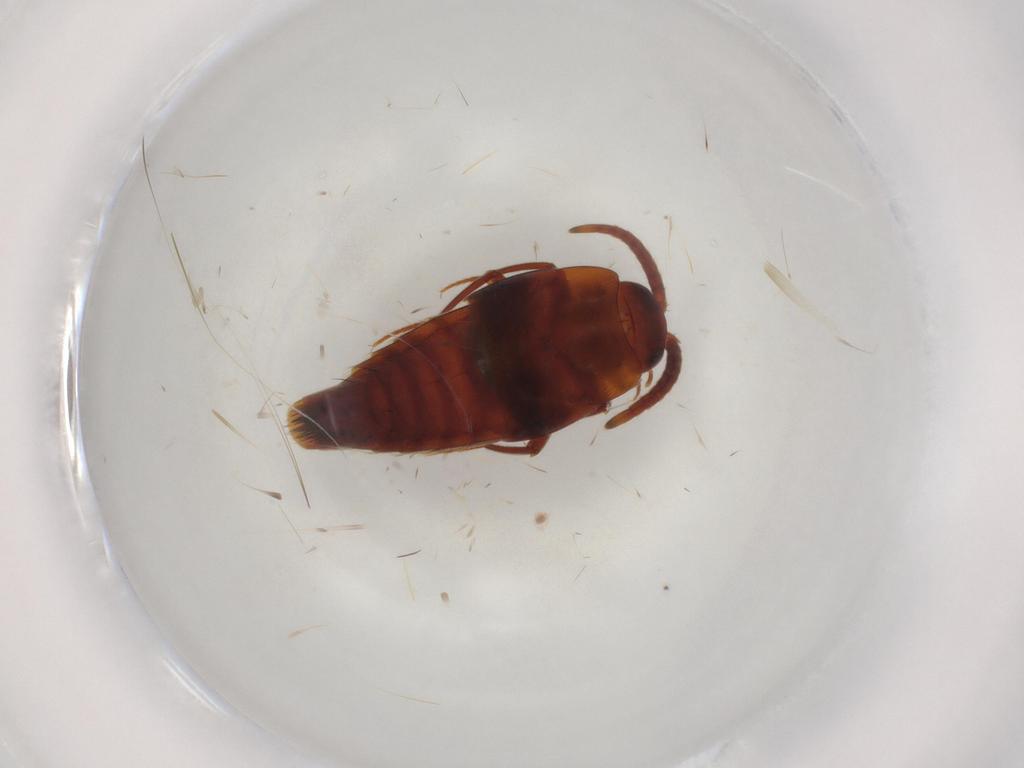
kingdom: Animalia
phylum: Arthropoda
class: Insecta
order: Coleoptera
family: Staphylinidae
